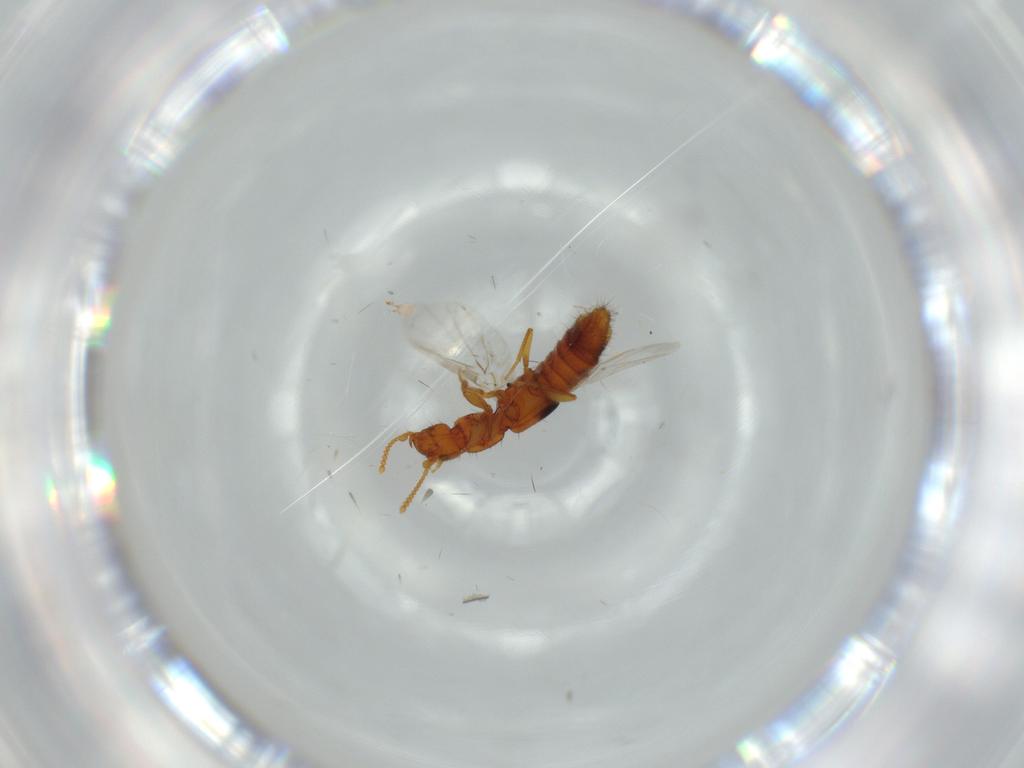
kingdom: Animalia
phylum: Arthropoda
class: Insecta
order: Coleoptera
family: Staphylinidae
